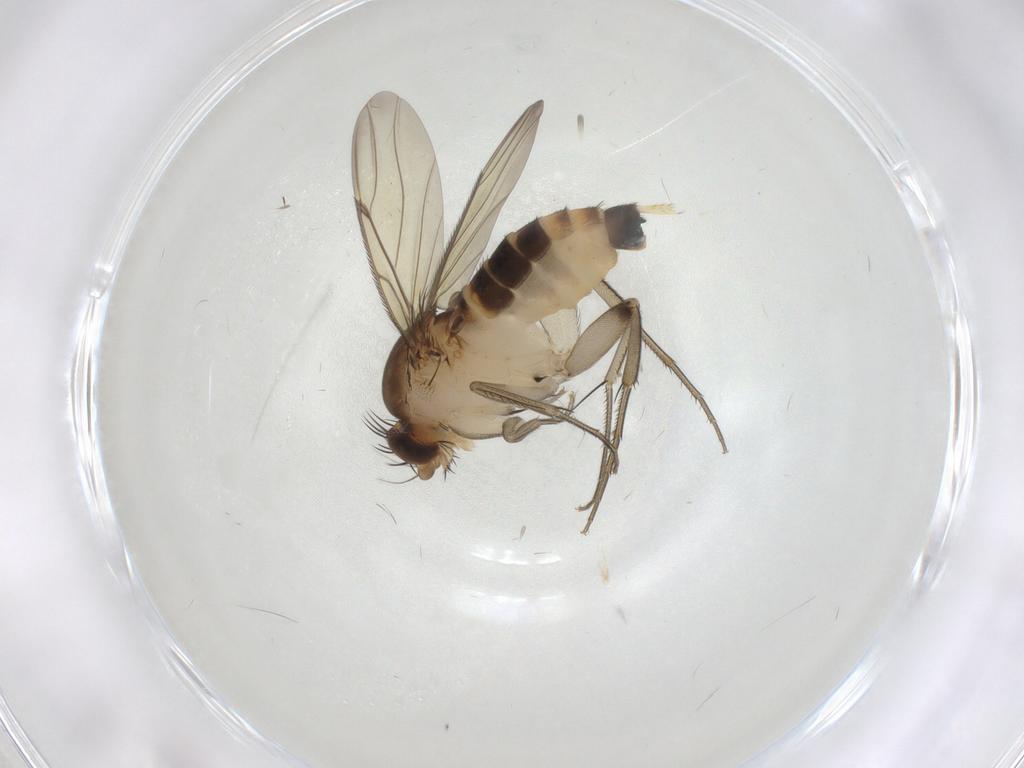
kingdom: Animalia
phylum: Arthropoda
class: Insecta
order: Diptera
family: Phoridae
